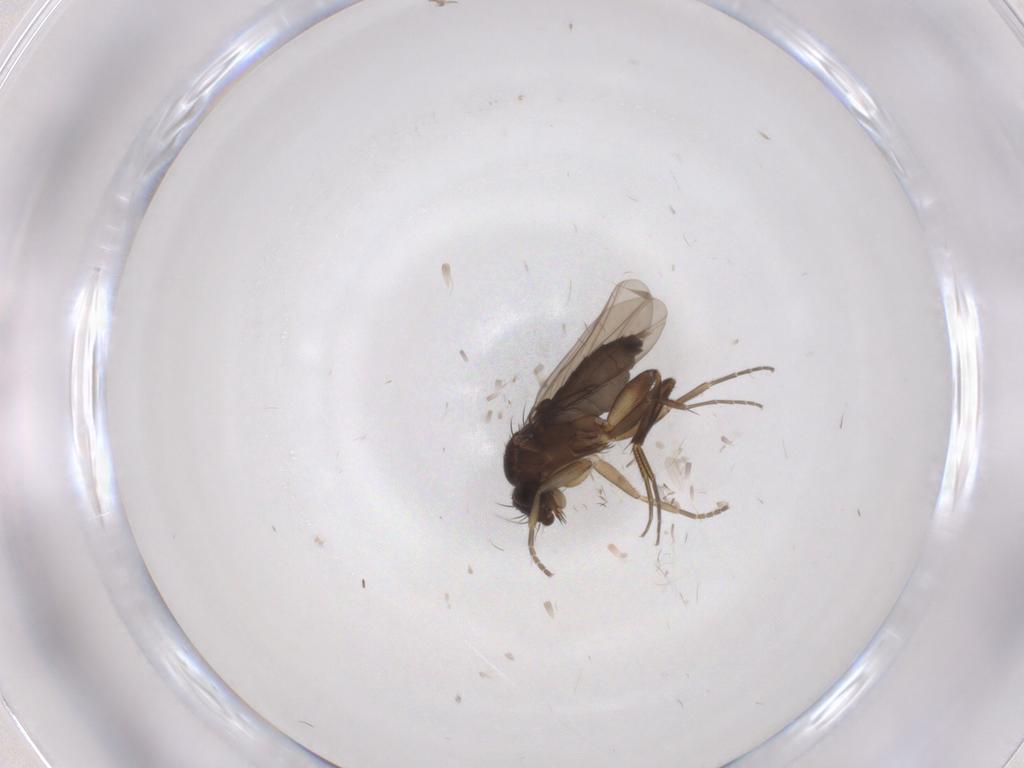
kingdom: Animalia
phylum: Arthropoda
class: Insecta
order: Diptera
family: Phoridae
